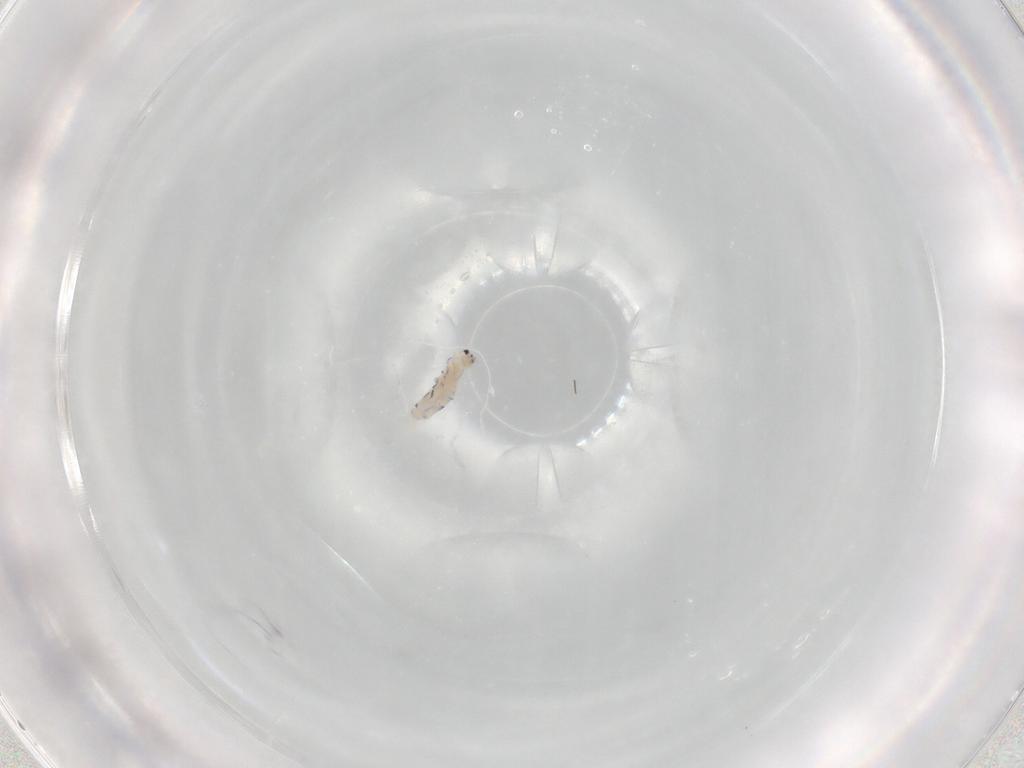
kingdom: Animalia
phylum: Arthropoda
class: Collembola
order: Entomobryomorpha
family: Entomobryidae
